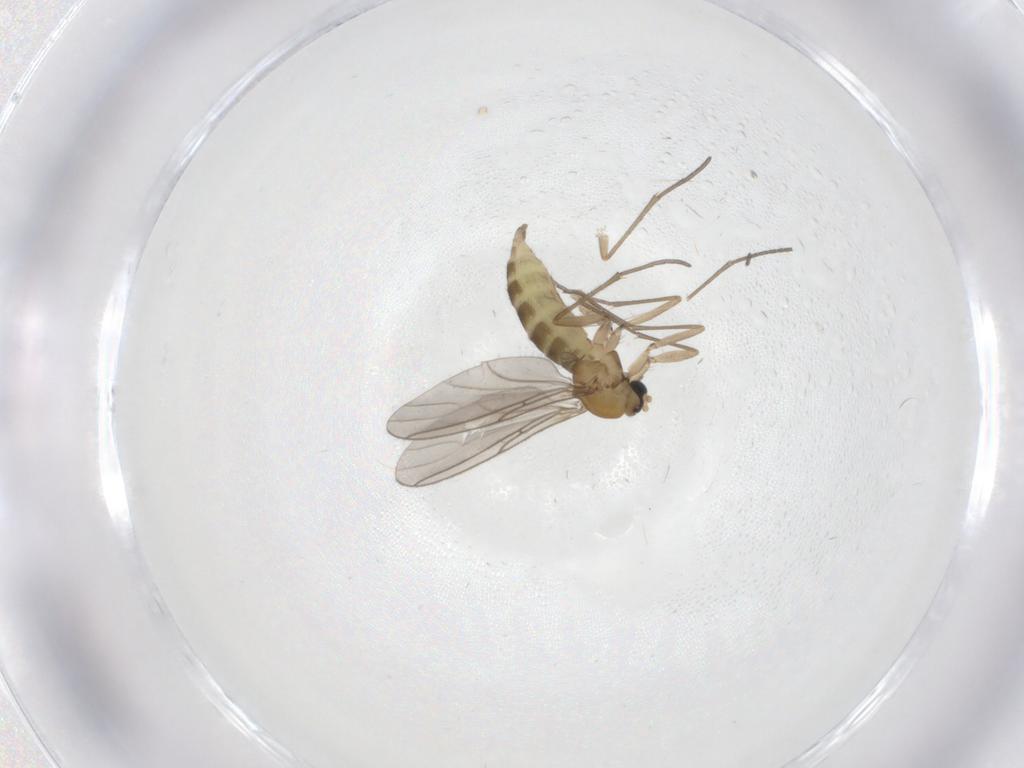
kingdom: Animalia
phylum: Arthropoda
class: Insecta
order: Diptera
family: Sciaridae
